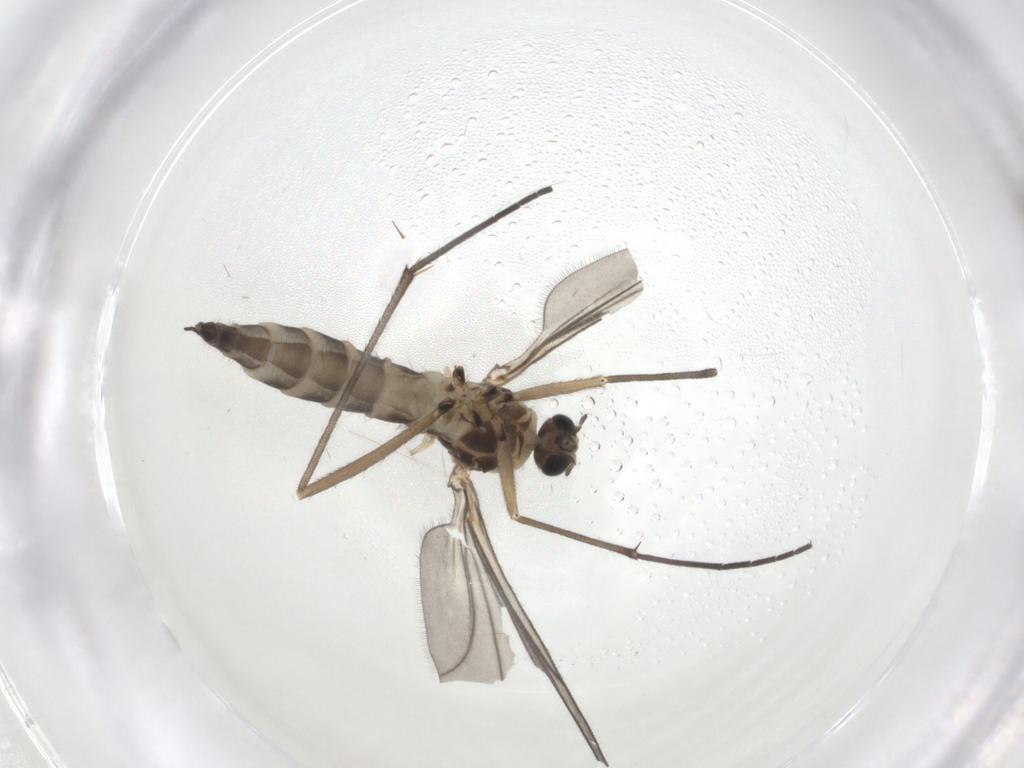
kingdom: Animalia
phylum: Arthropoda
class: Insecta
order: Diptera
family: Sciaridae
